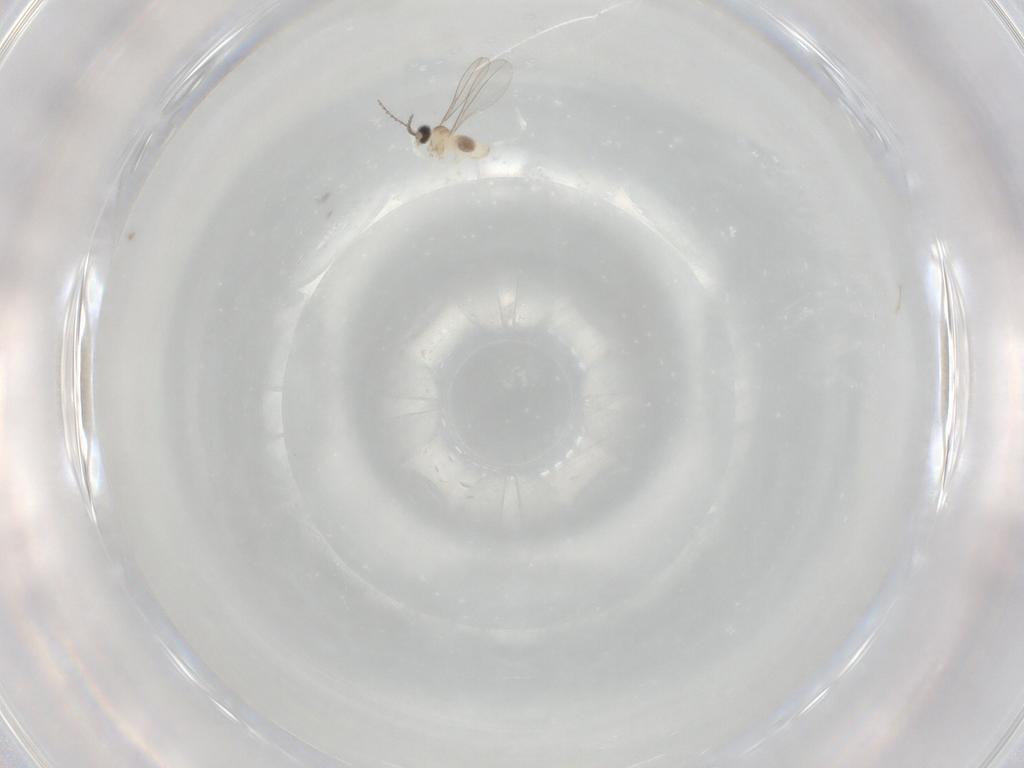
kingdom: Animalia
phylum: Arthropoda
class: Insecta
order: Diptera
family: Cecidomyiidae
